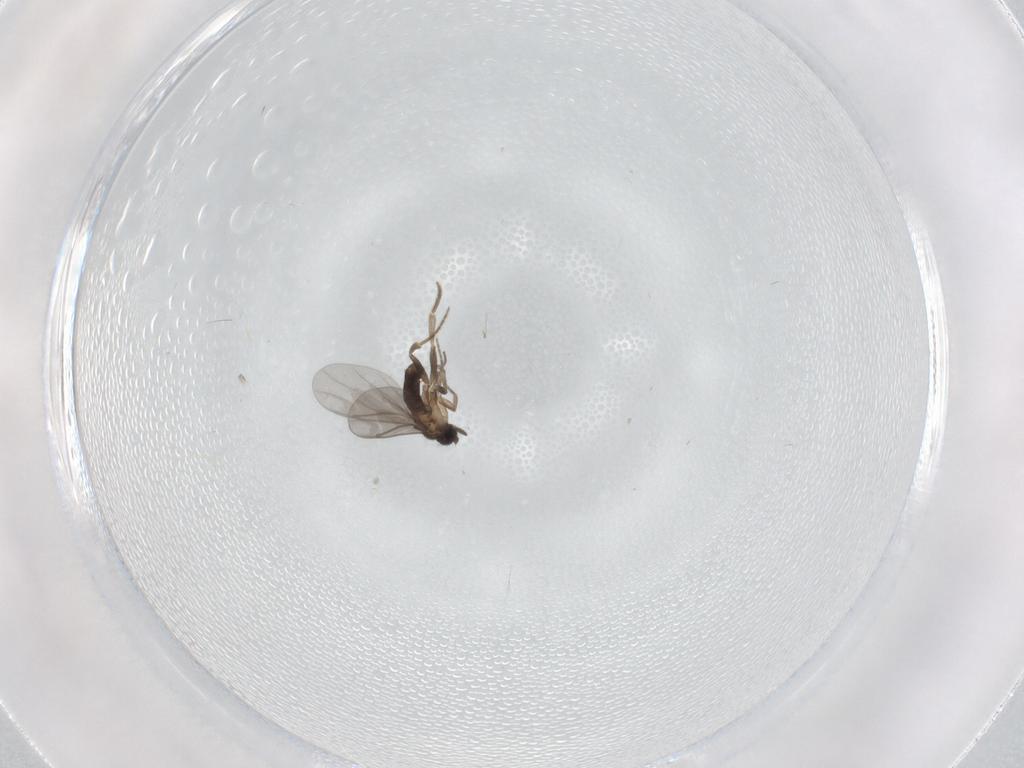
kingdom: Animalia
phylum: Arthropoda
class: Insecta
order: Diptera
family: Phoridae
